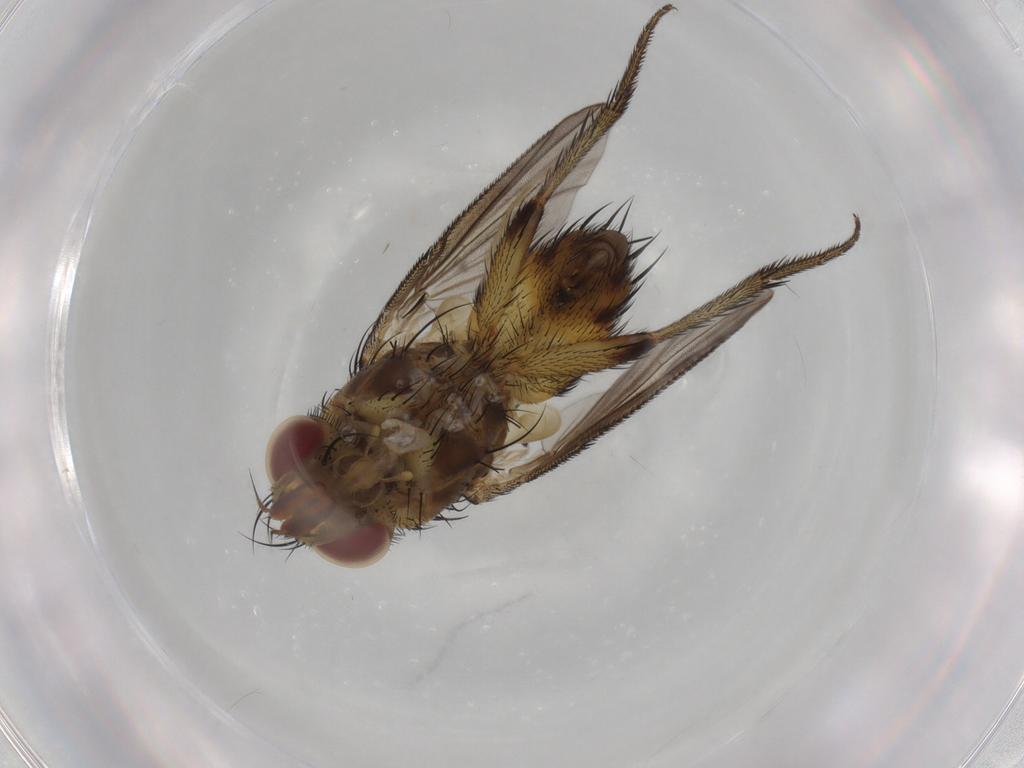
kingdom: Animalia
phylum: Arthropoda
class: Insecta
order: Diptera
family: Tachinidae
